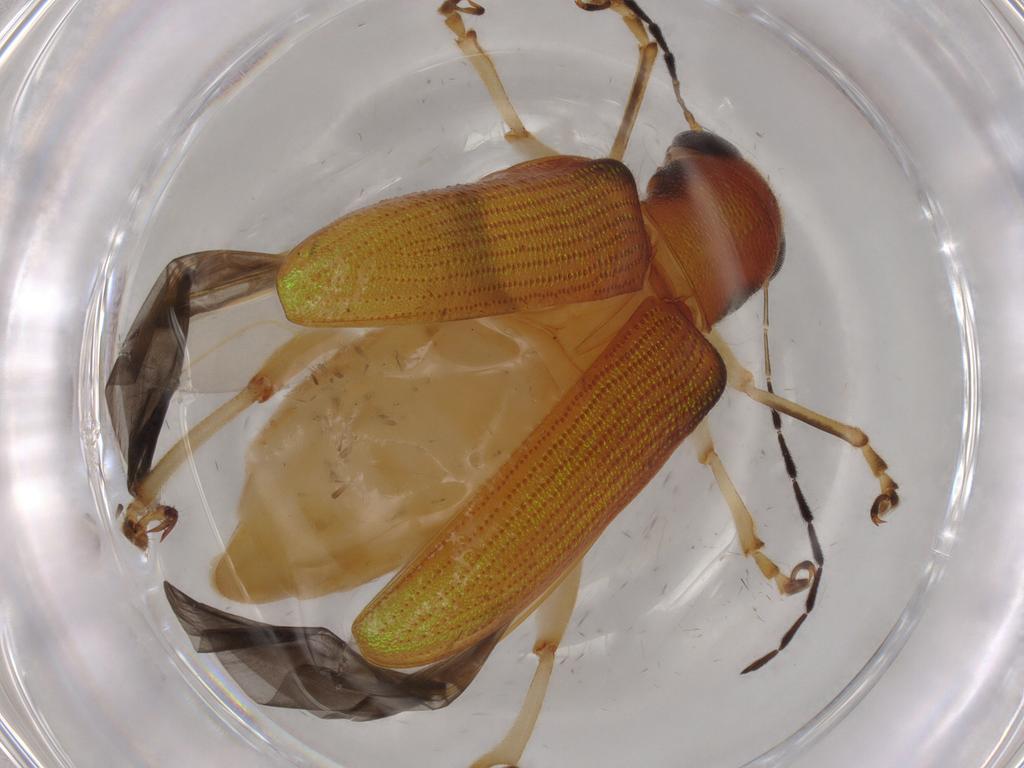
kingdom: Animalia
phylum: Arthropoda
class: Insecta
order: Coleoptera
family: Chrysomelidae
